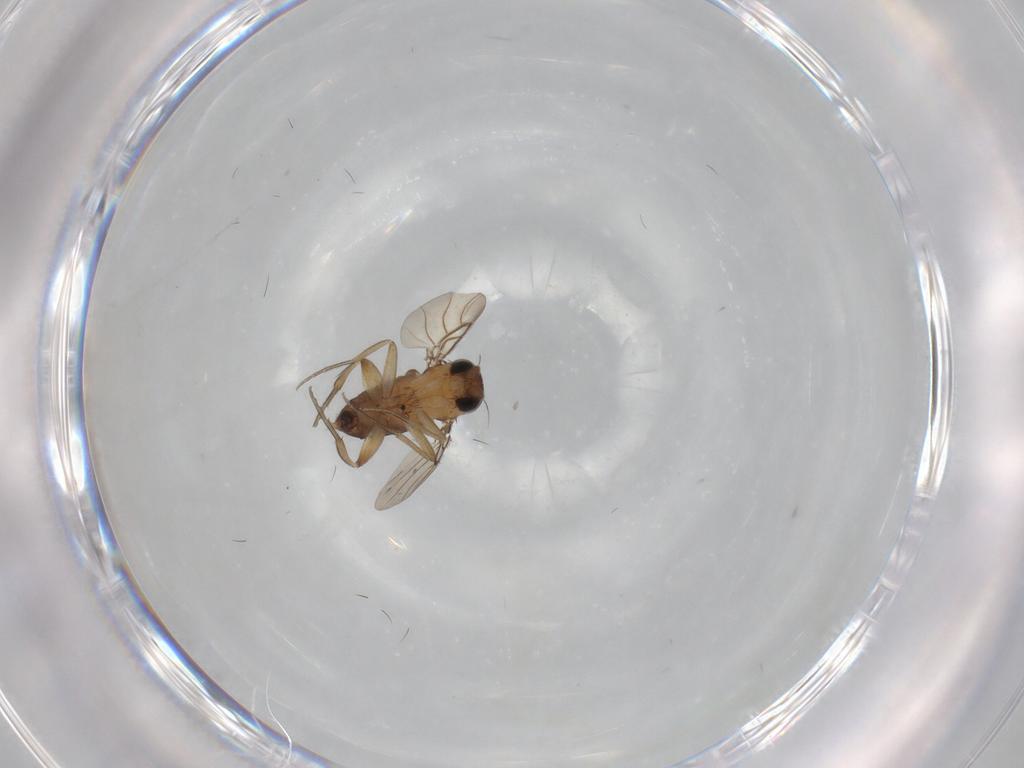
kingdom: Animalia
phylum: Arthropoda
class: Insecta
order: Diptera
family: Phoridae
